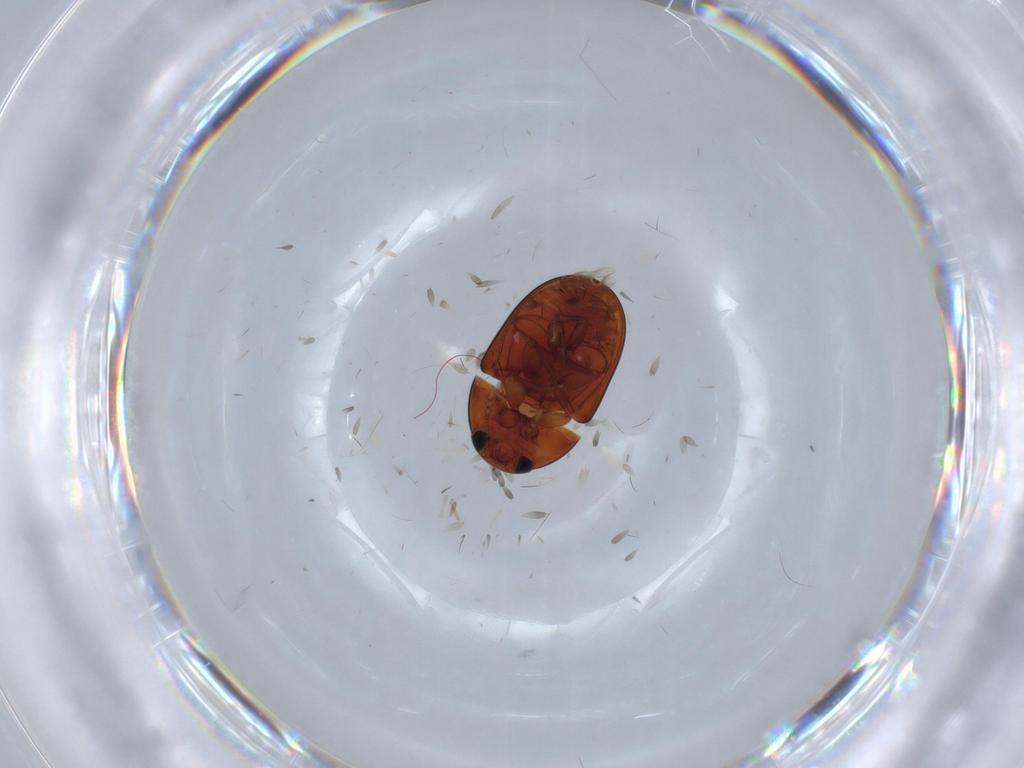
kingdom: Animalia
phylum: Arthropoda
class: Insecta
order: Coleoptera
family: Phalacridae
